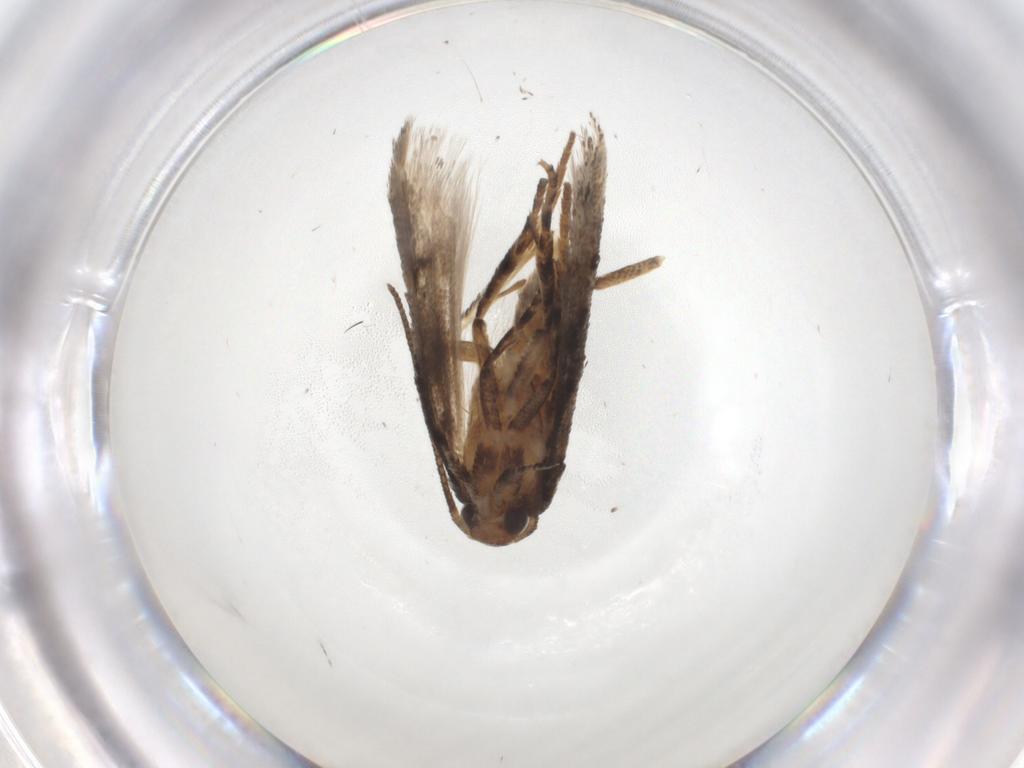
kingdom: Animalia
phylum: Arthropoda
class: Insecta
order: Lepidoptera
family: Gelechiidae
